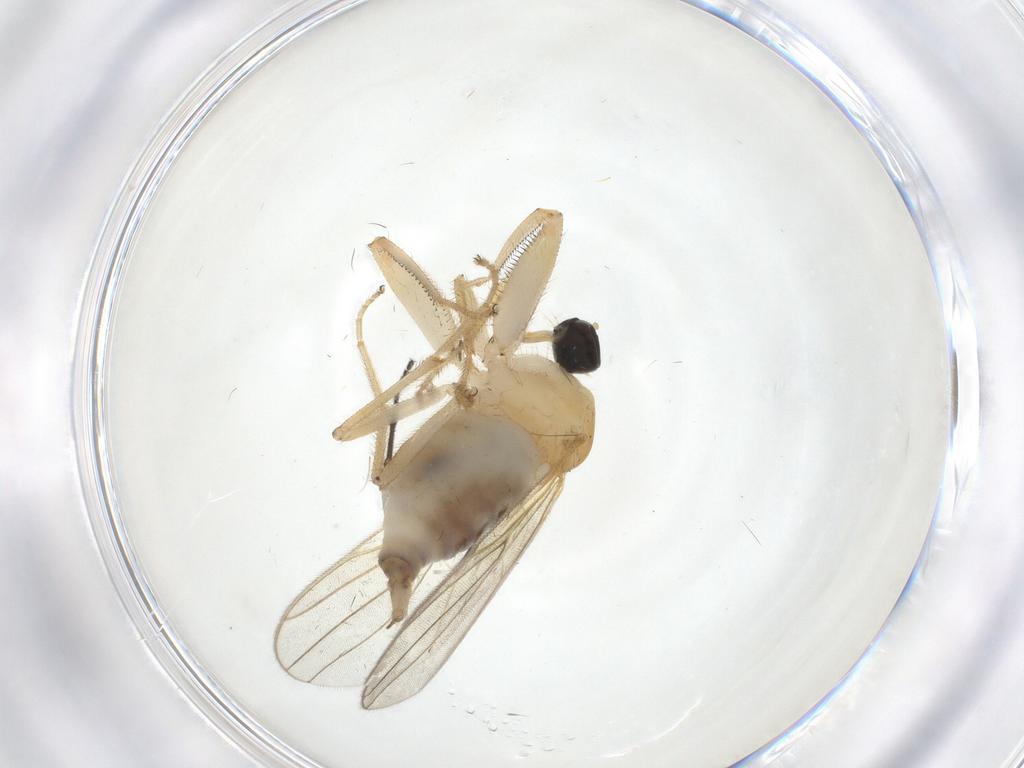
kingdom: Animalia
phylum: Arthropoda
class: Insecta
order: Diptera
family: Hybotidae
